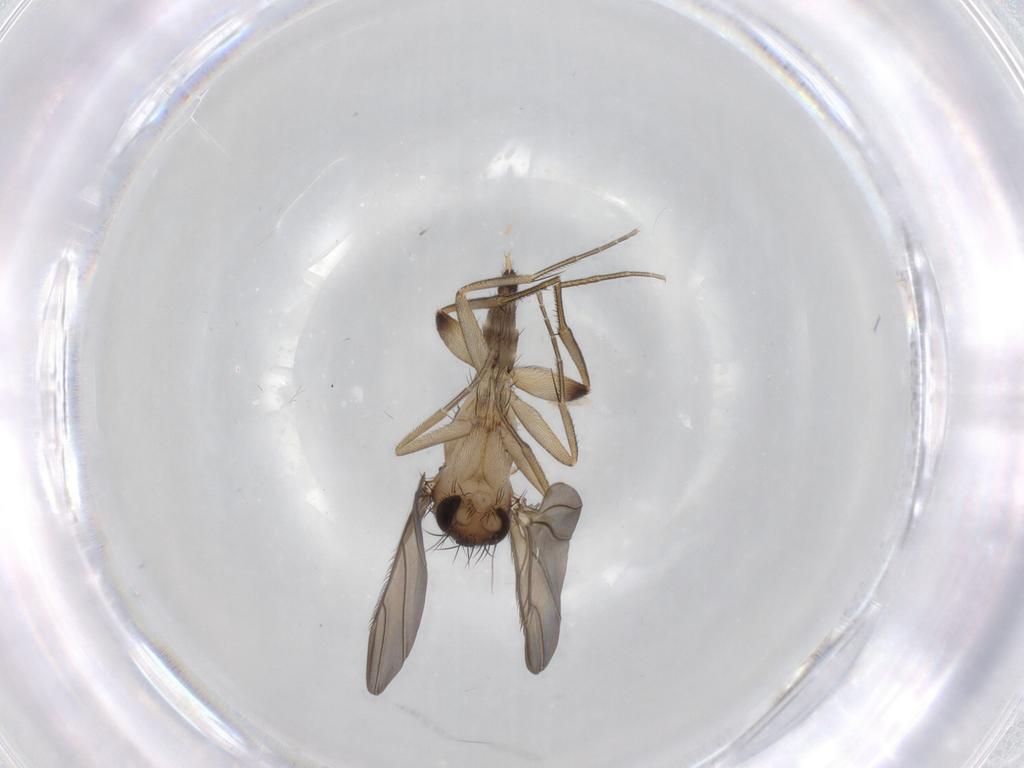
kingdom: Animalia
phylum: Arthropoda
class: Insecta
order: Diptera
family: Phoridae
